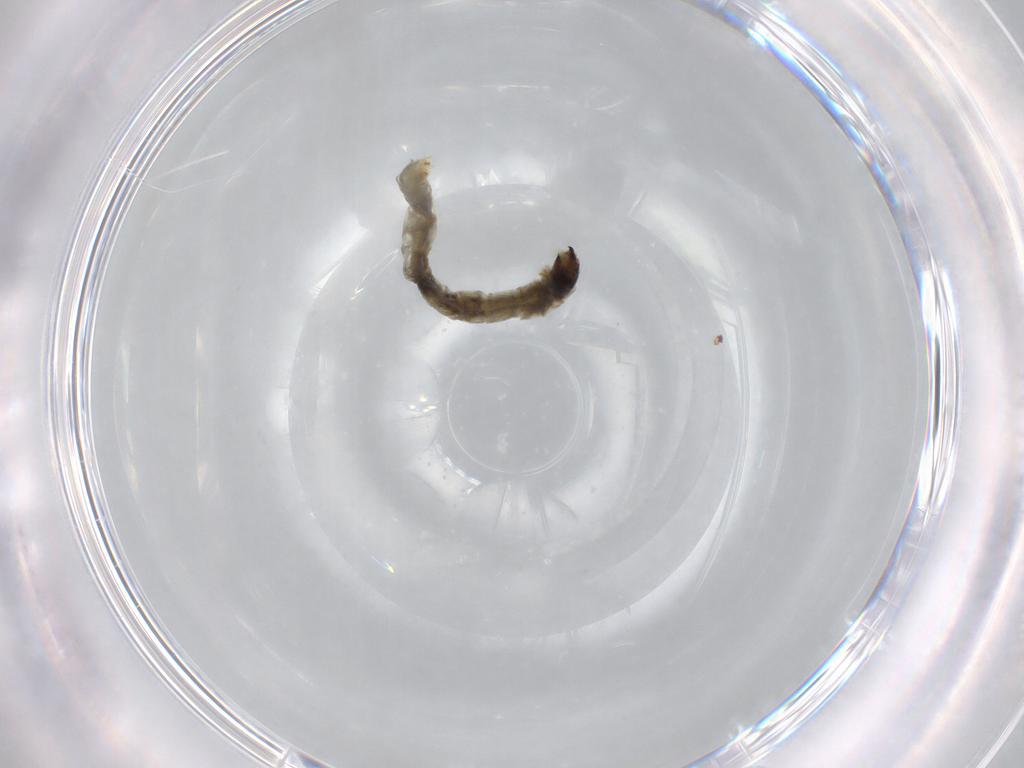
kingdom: Animalia
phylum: Arthropoda
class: Insecta
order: Diptera
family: Chironomidae
